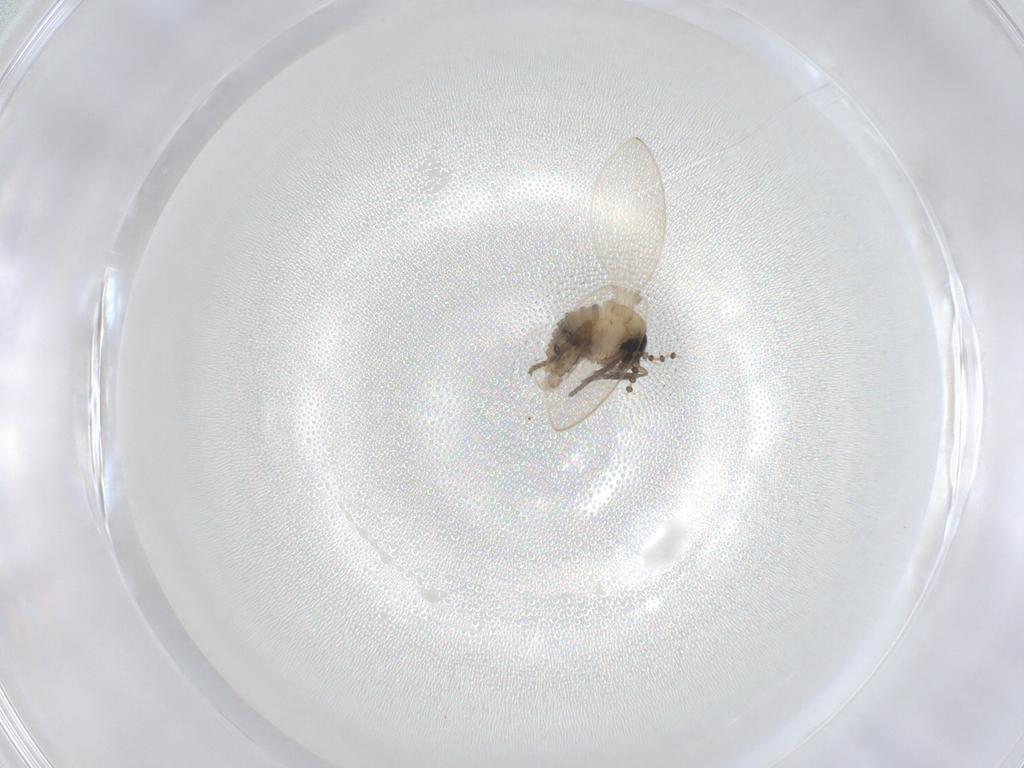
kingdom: Animalia
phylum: Arthropoda
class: Insecta
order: Diptera
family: Psychodidae
